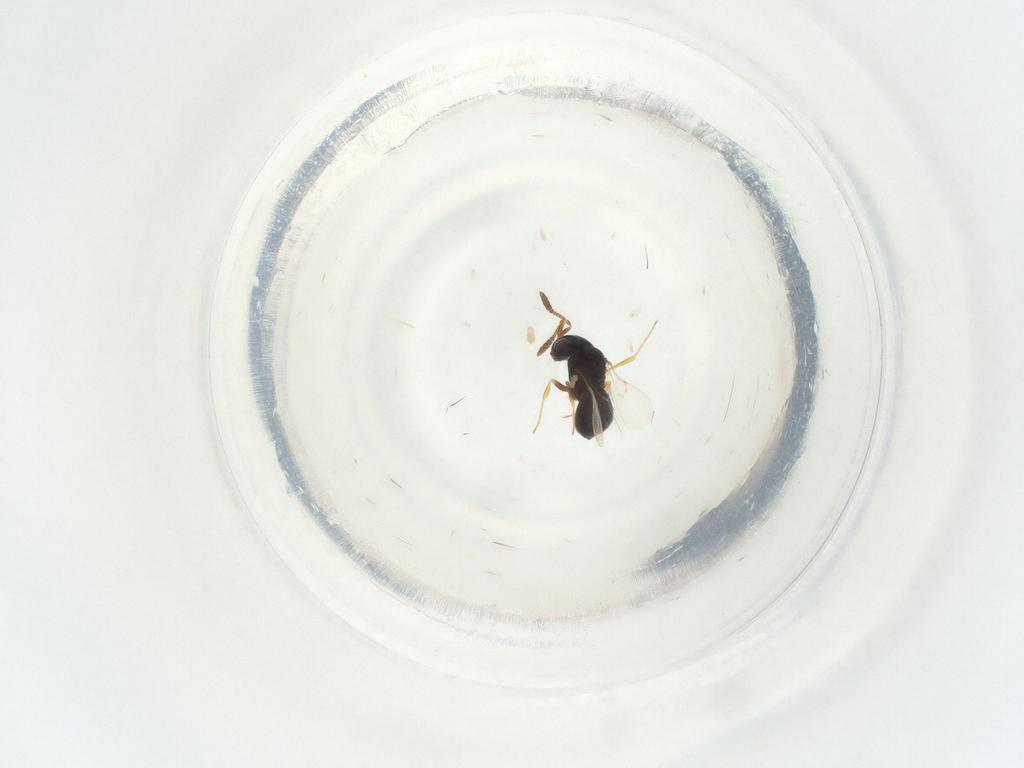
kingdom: Animalia
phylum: Arthropoda
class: Insecta
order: Hymenoptera
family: Scelionidae
